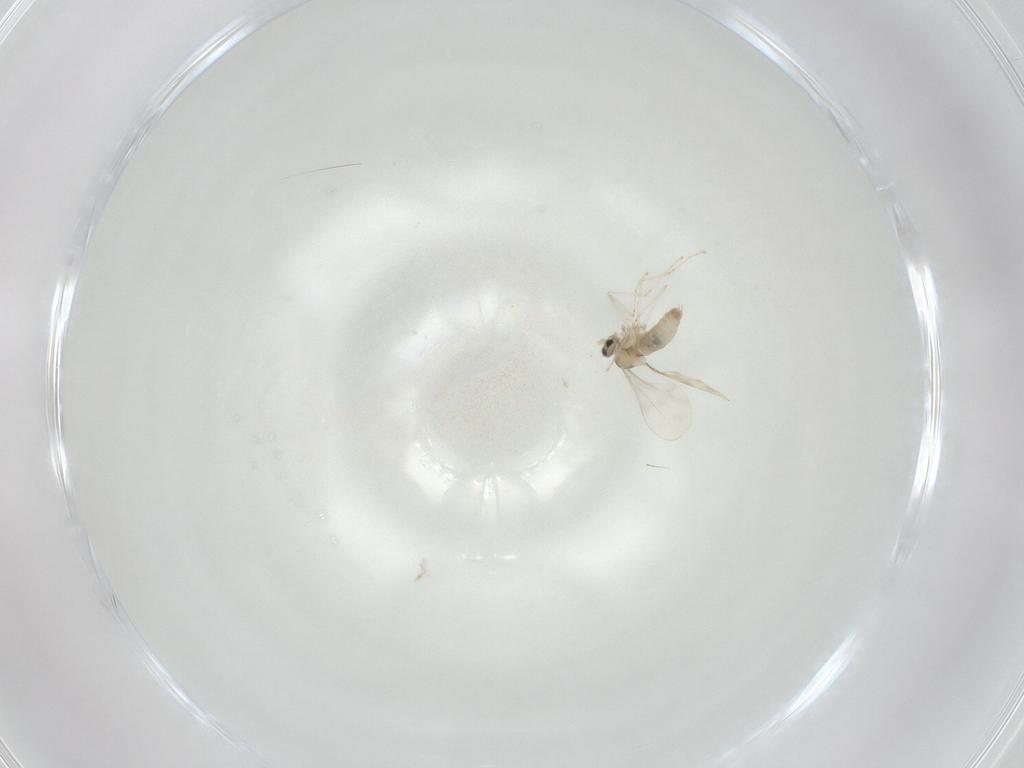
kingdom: Animalia
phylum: Arthropoda
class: Insecta
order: Diptera
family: Cecidomyiidae
